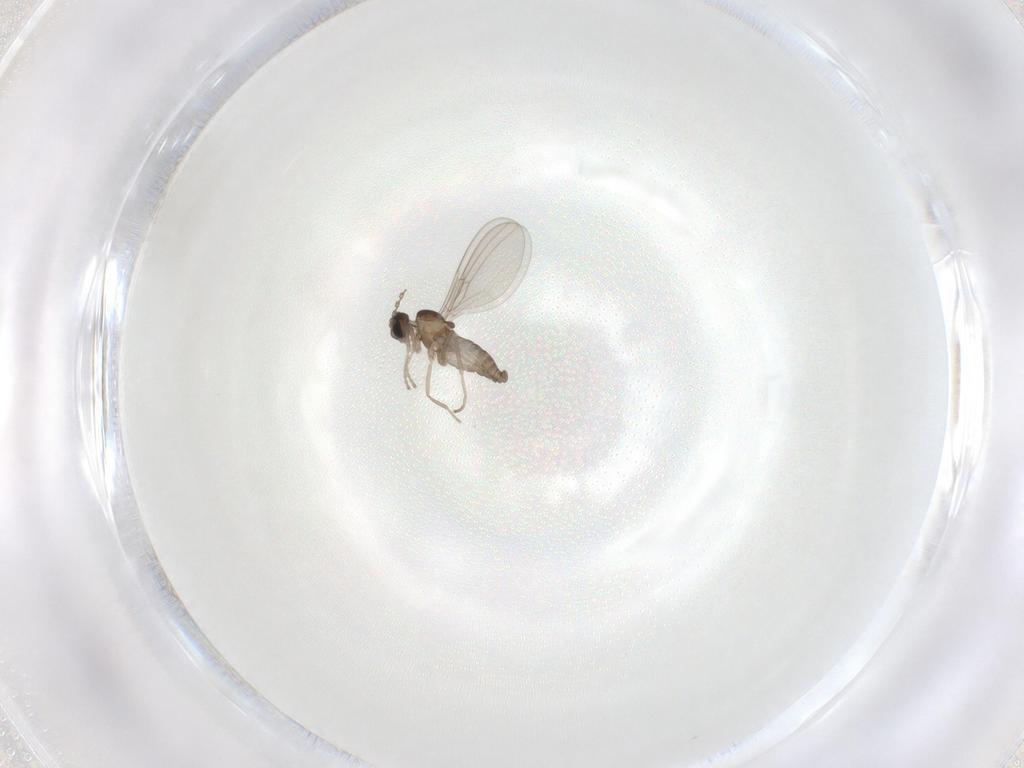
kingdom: Animalia
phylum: Arthropoda
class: Insecta
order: Diptera
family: Cecidomyiidae
